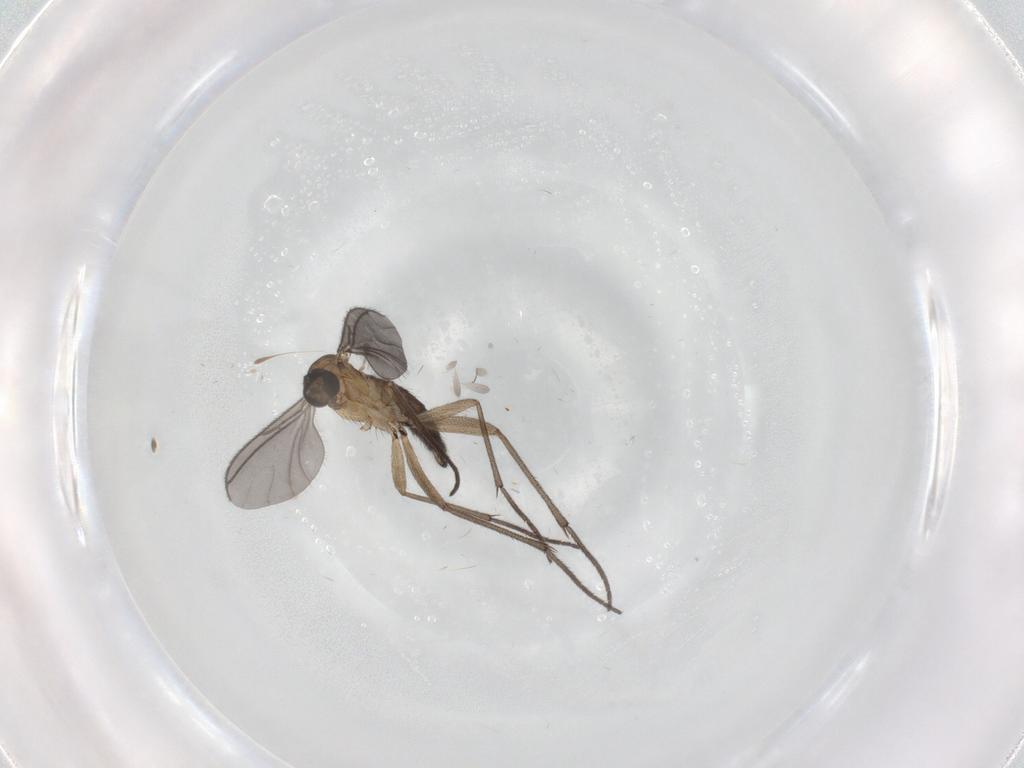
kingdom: Animalia
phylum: Arthropoda
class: Insecta
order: Diptera
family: Sciaridae
